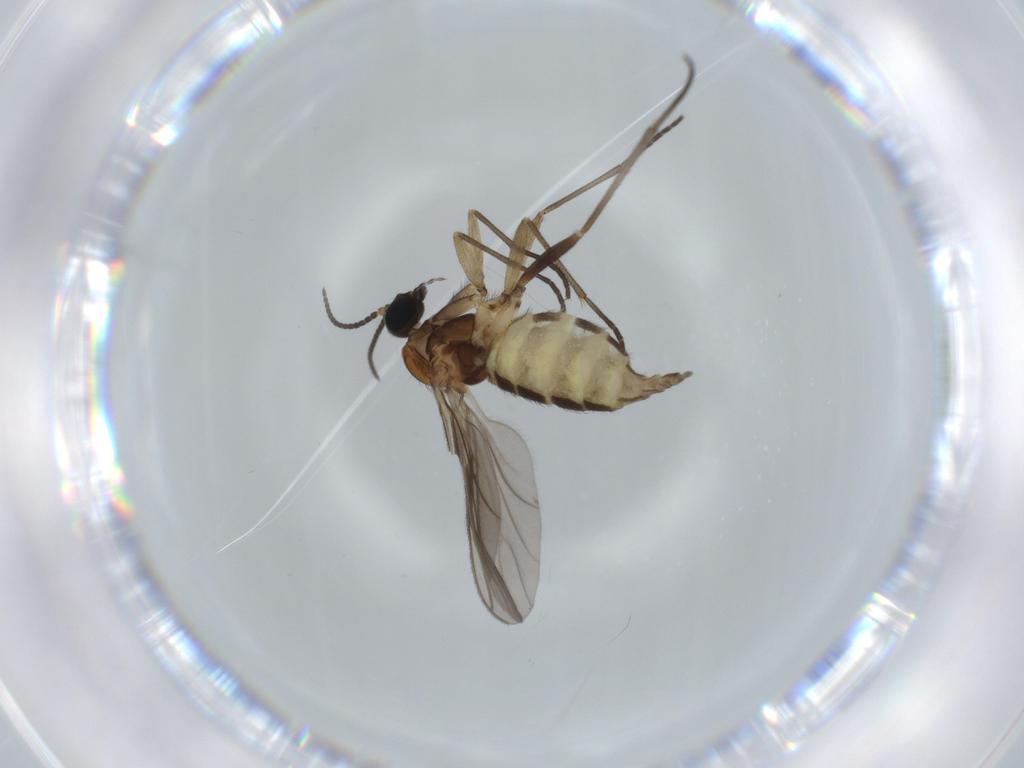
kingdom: Animalia
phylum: Arthropoda
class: Insecta
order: Diptera
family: Sciaridae
